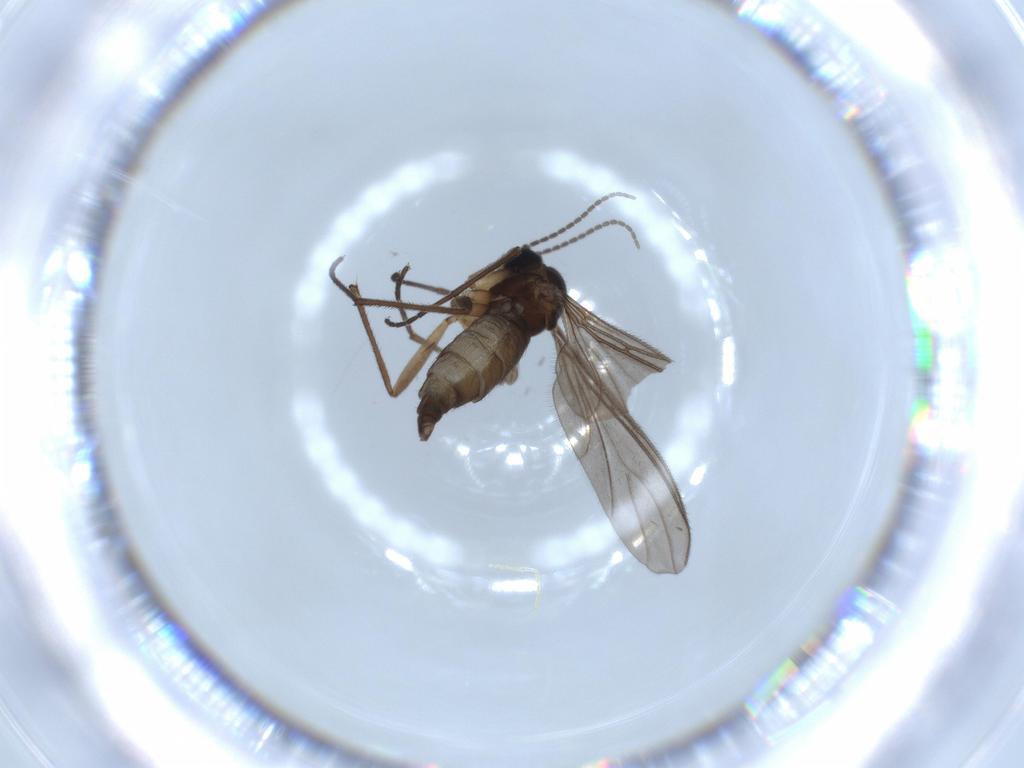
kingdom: Animalia
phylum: Arthropoda
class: Insecta
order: Diptera
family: Sciaridae
